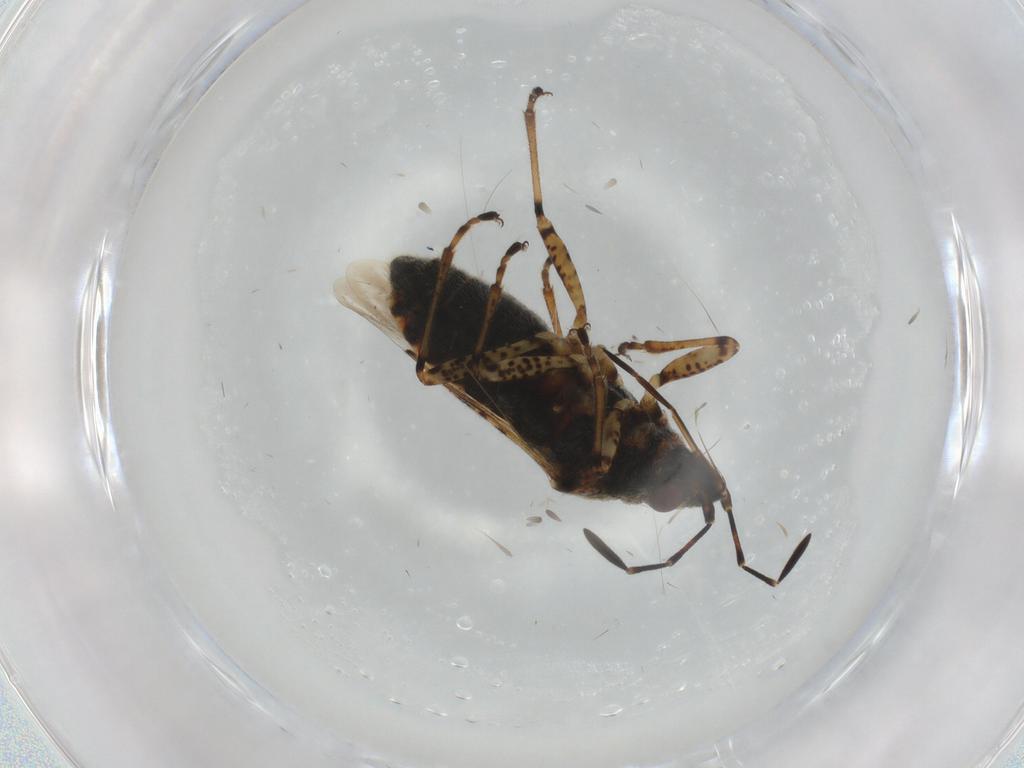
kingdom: Animalia
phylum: Arthropoda
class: Insecta
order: Hemiptera
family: Lygaeidae
